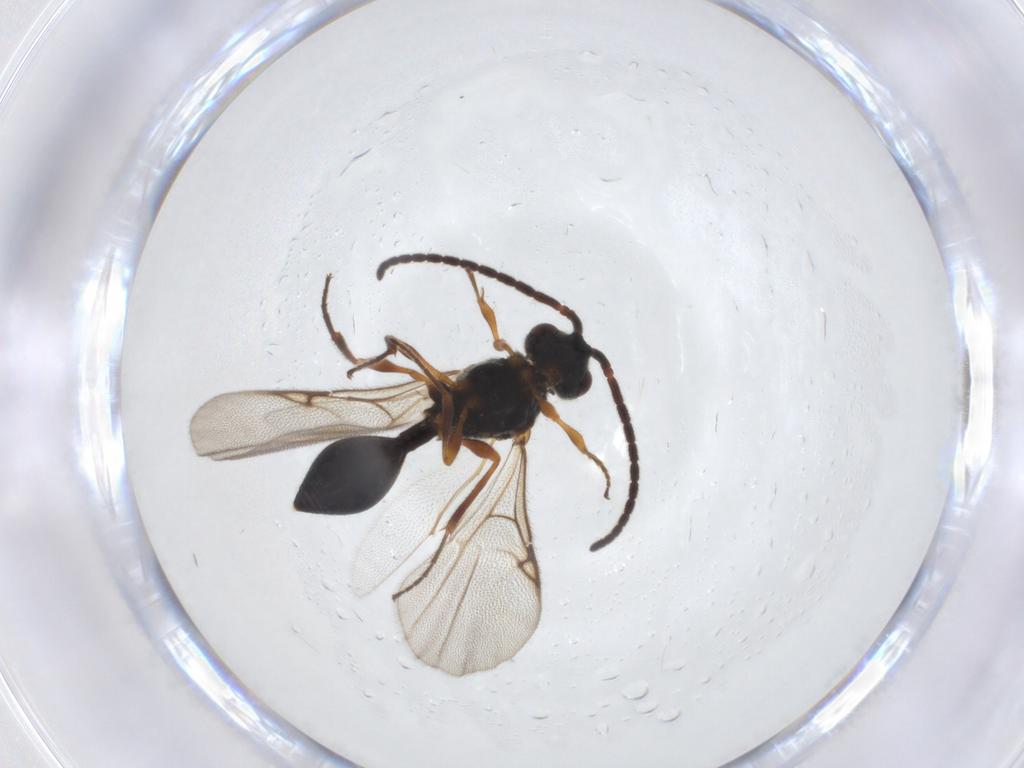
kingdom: Animalia
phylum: Arthropoda
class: Insecta
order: Hymenoptera
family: Diapriidae
